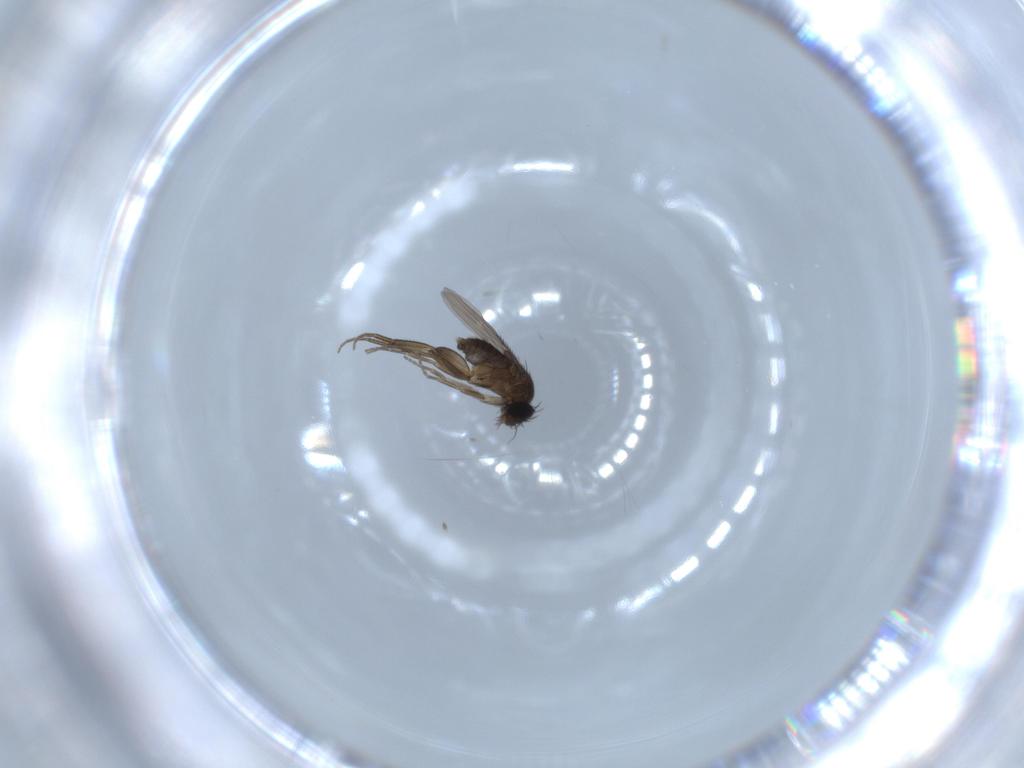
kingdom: Animalia
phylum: Arthropoda
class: Insecta
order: Diptera
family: Phoridae
